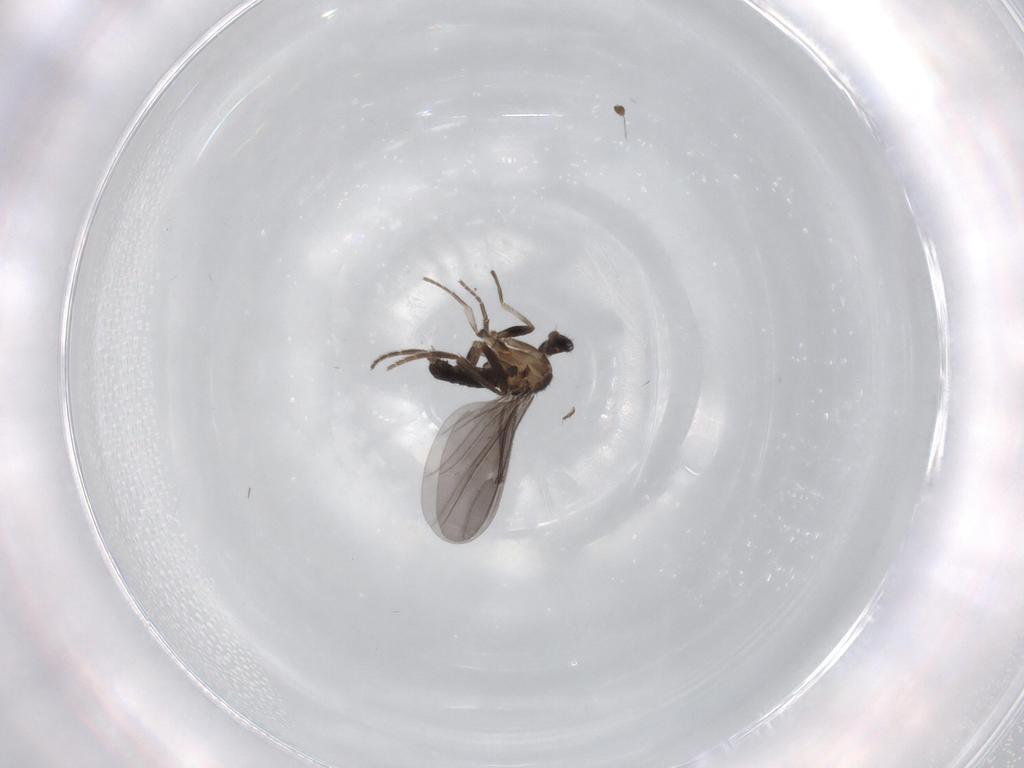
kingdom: Animalia
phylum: Arthropoda
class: Insecta
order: Diptera
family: Phoridae
